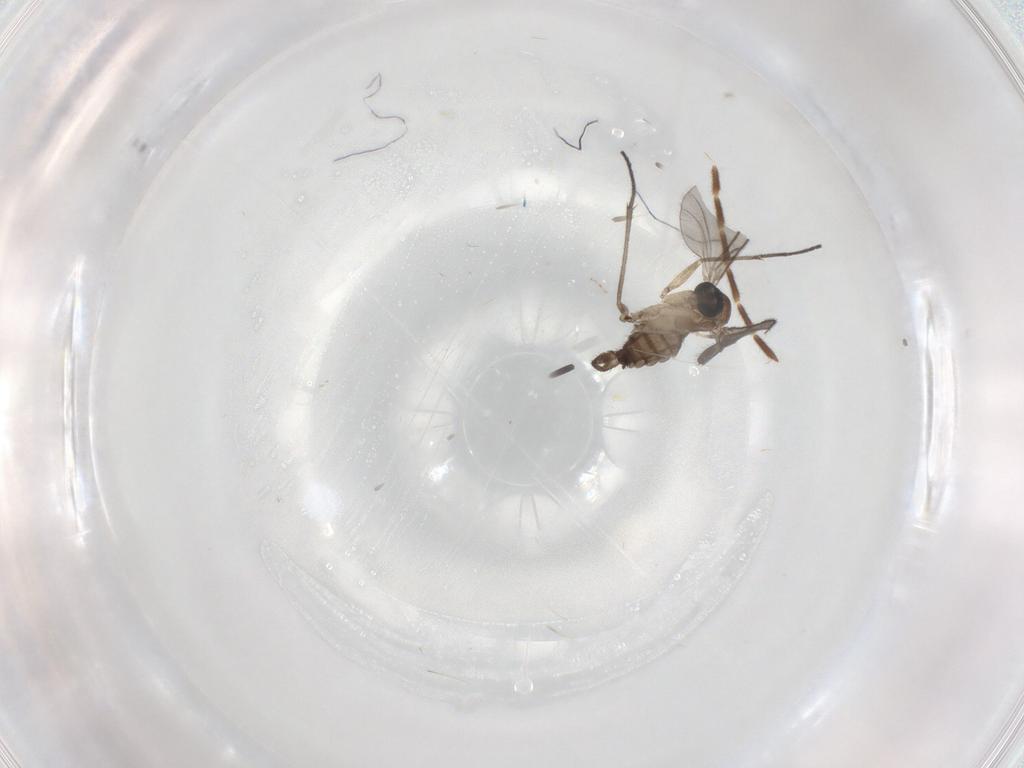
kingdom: Animalia
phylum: Arthropoda
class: Insecta
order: Diptera
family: Sciaridae
